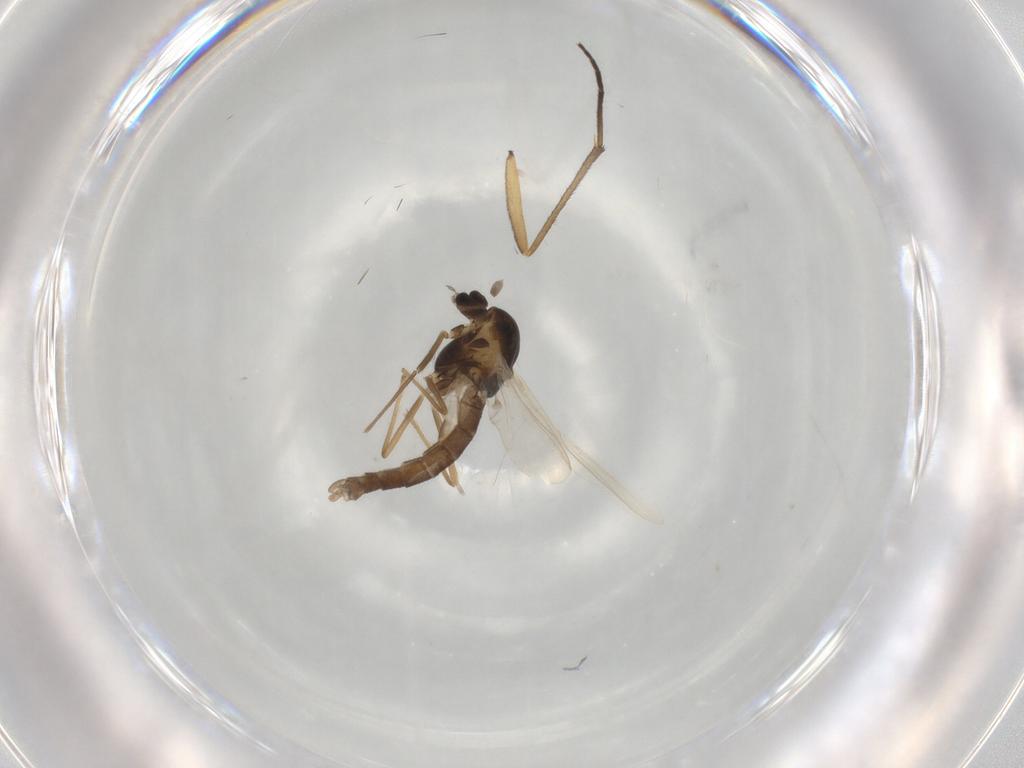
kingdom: Animalia
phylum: Arthropoda
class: Insecta
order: Diptera
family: Chironomidae
